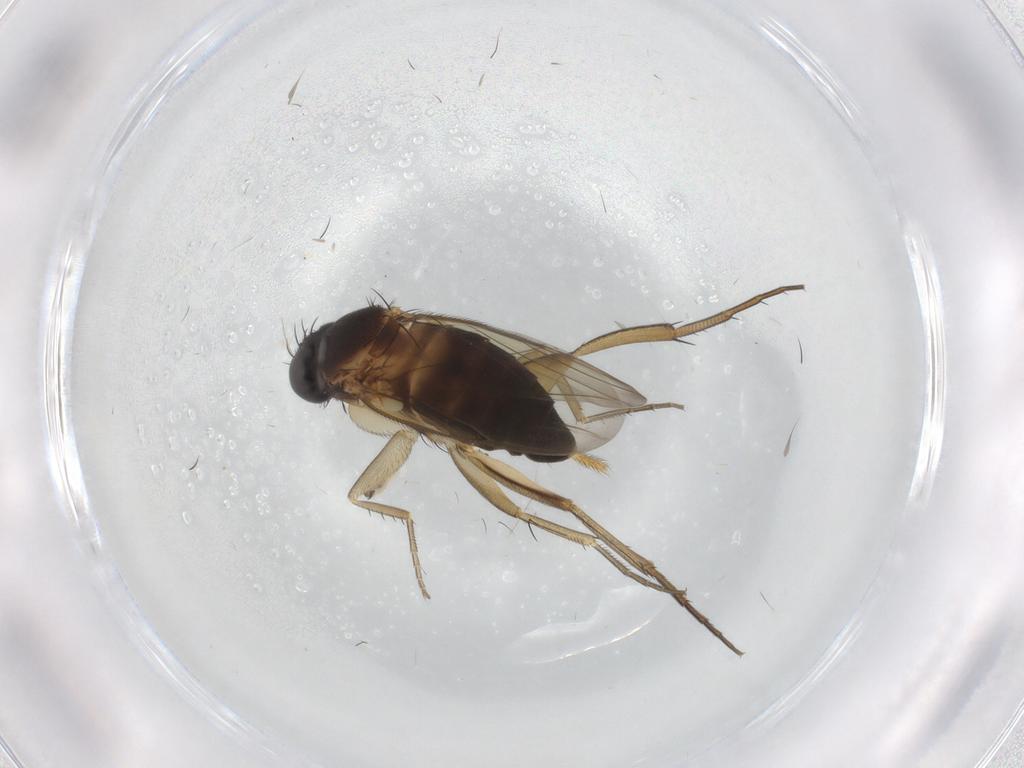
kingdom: Animalia
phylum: Arthropoda
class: Insecta
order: Diptera
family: Phoridae
